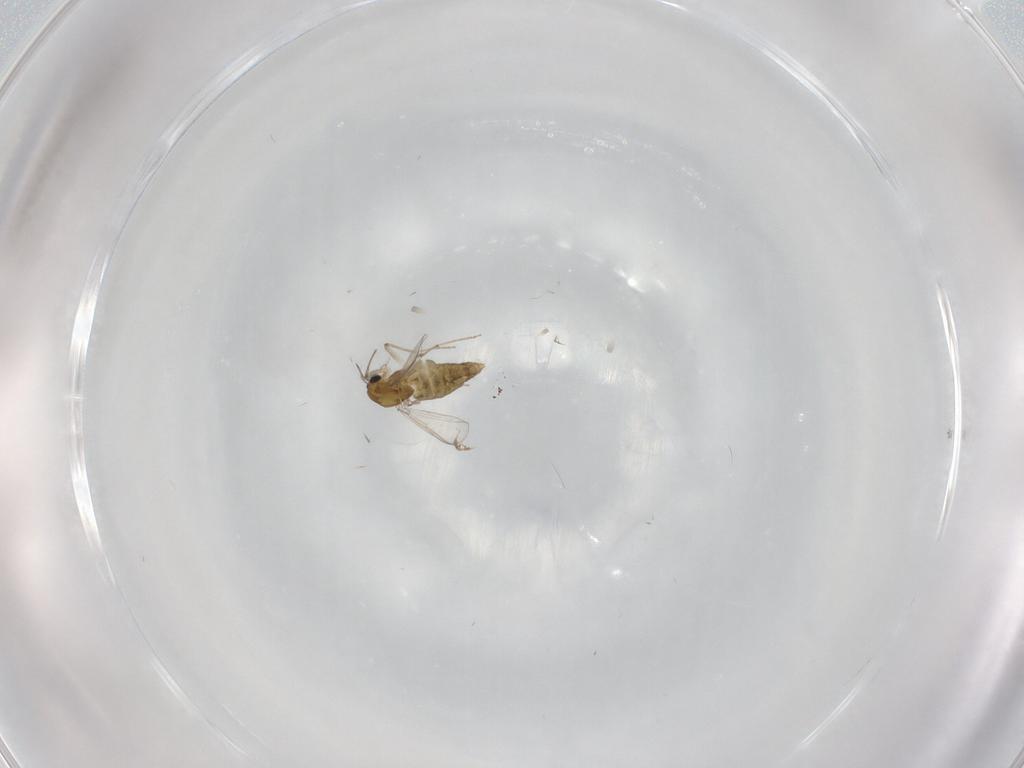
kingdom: Animalia
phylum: Arthropoda
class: Insecta
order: Diptera
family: Chironomidae
